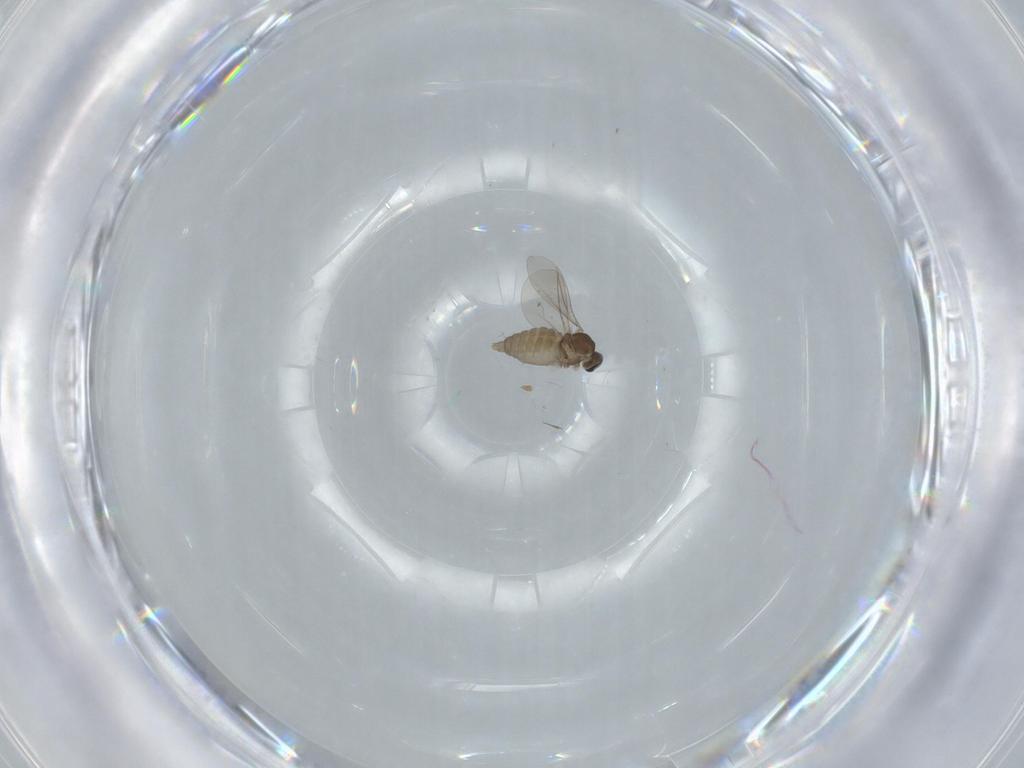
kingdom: Animalia
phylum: Arthropoda
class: Insecta
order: Diptera
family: Cecidomyiidae
